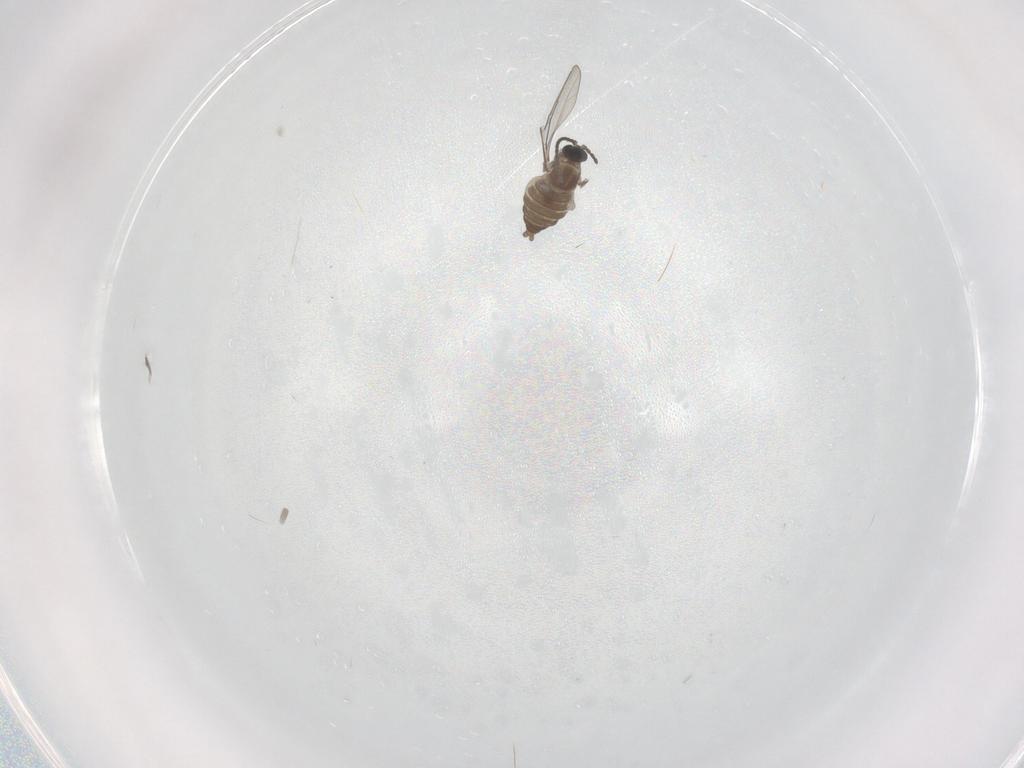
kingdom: Animalia
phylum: Arthropoda
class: Insecta
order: Diptera
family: Cecidomyiidae
